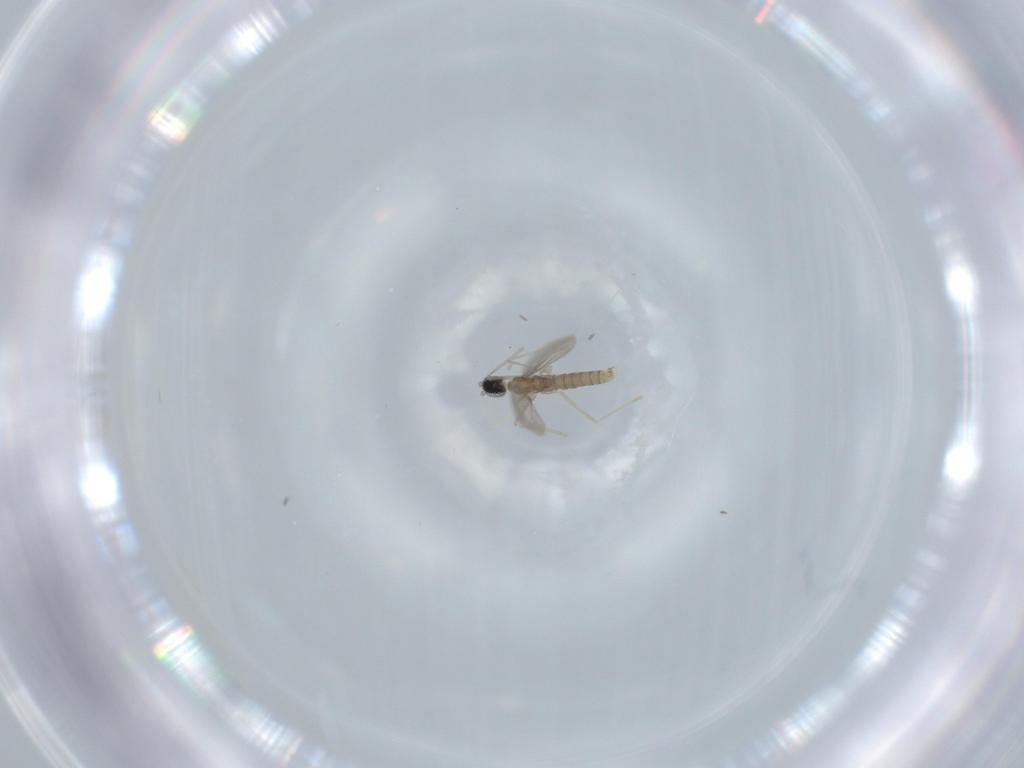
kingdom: Animalia
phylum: Arthropoda
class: Insecta
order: Diptera
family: Cecidomyiidae
